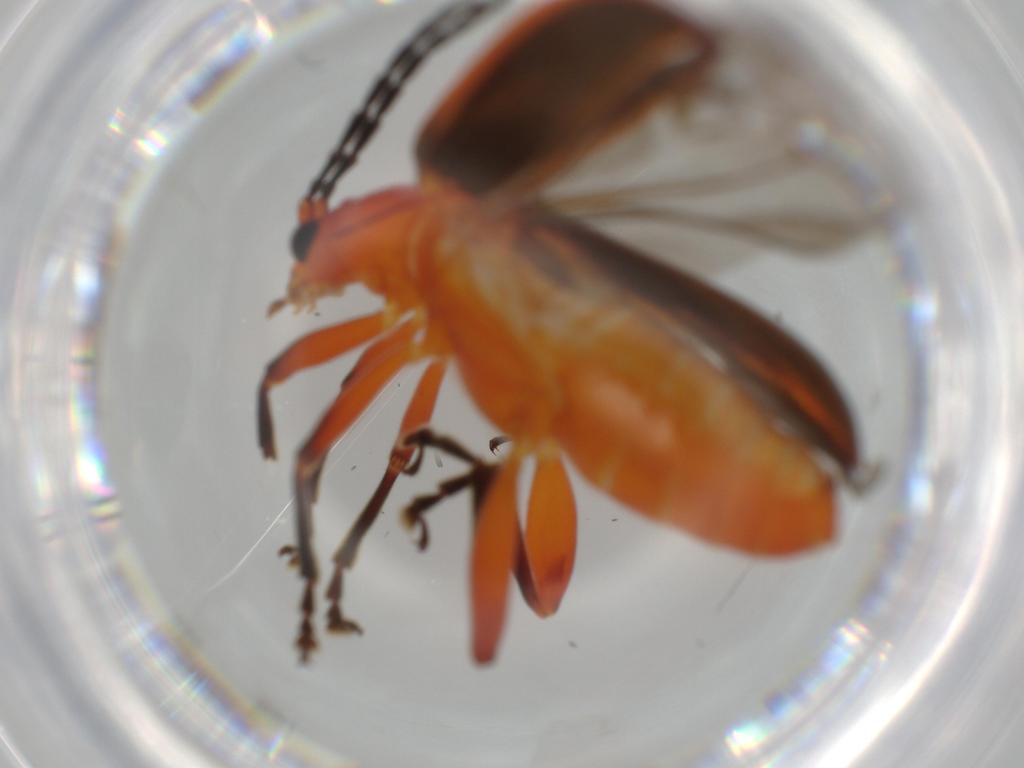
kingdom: Animalia
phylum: Arthropoda
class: Insecta
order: Coleoptera
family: Chrysomelidae
